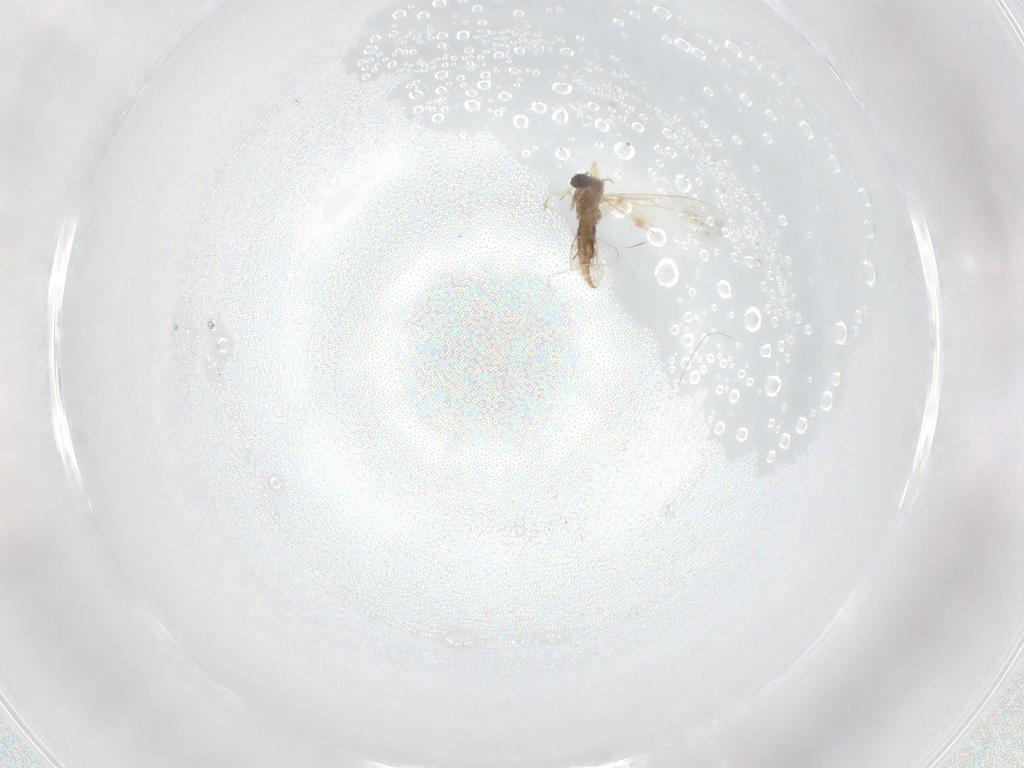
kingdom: Animalia
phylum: Arthropoda
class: Insecta
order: Diptera
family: Cecidomyiidae
